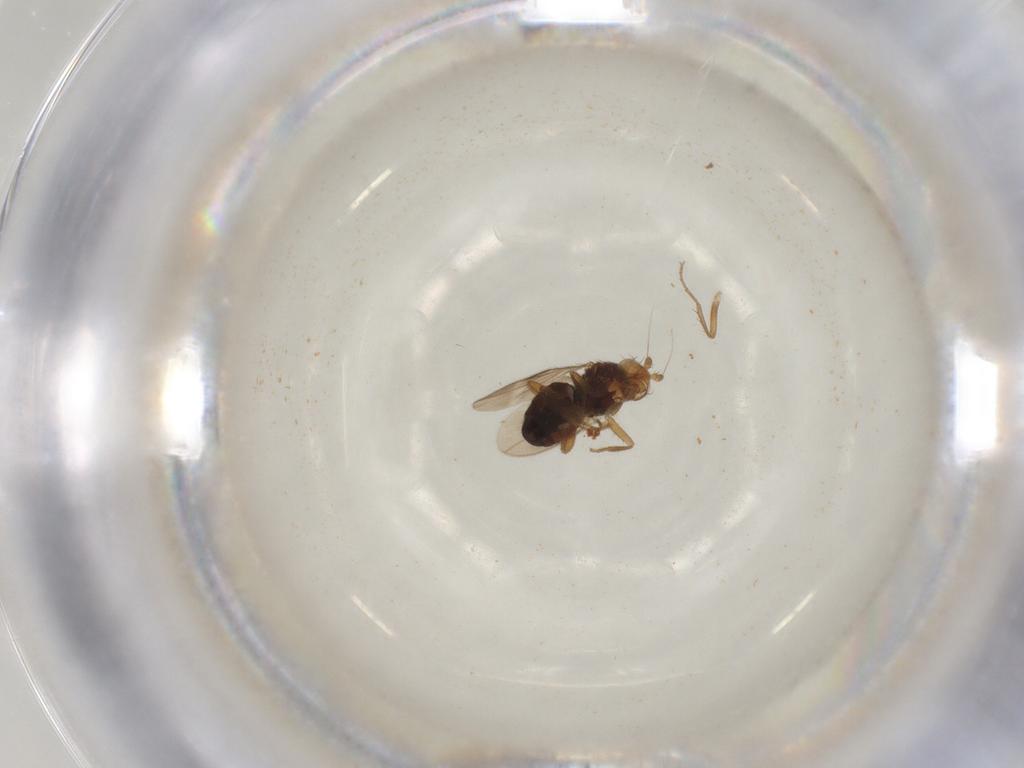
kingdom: Animalia
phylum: Arthropoda
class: Insecta
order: Diptera
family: Sphaeroceridae
